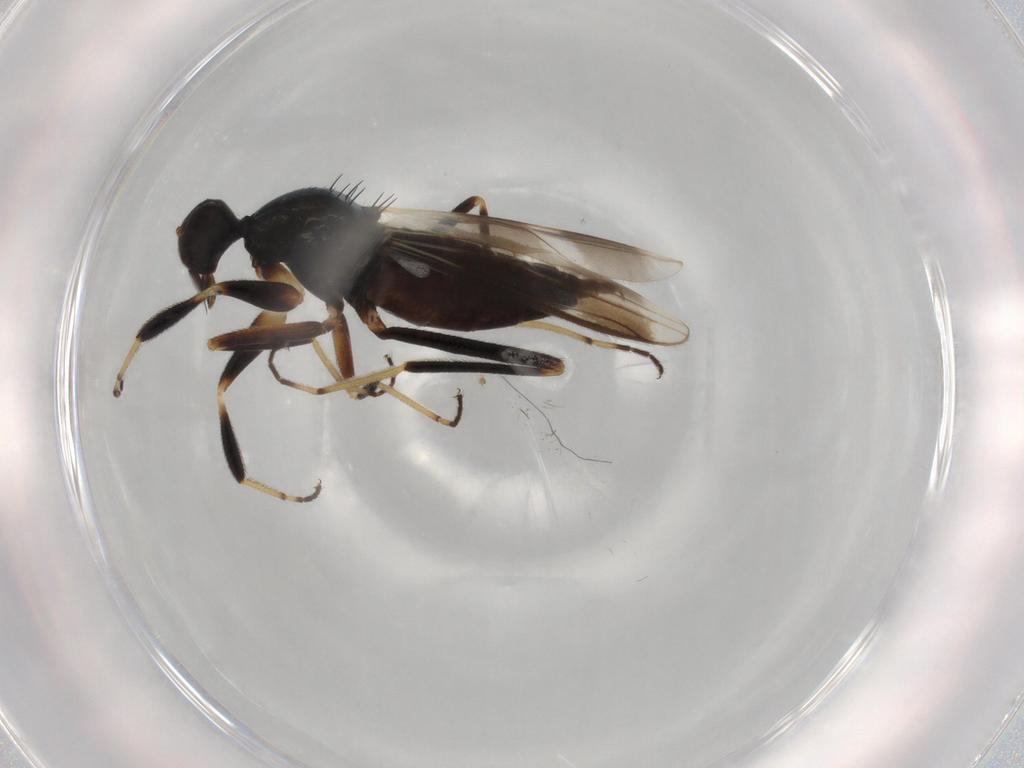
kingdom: Animalia
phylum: Arthropoda
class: Insecta
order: Diptera
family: Hybotidae
